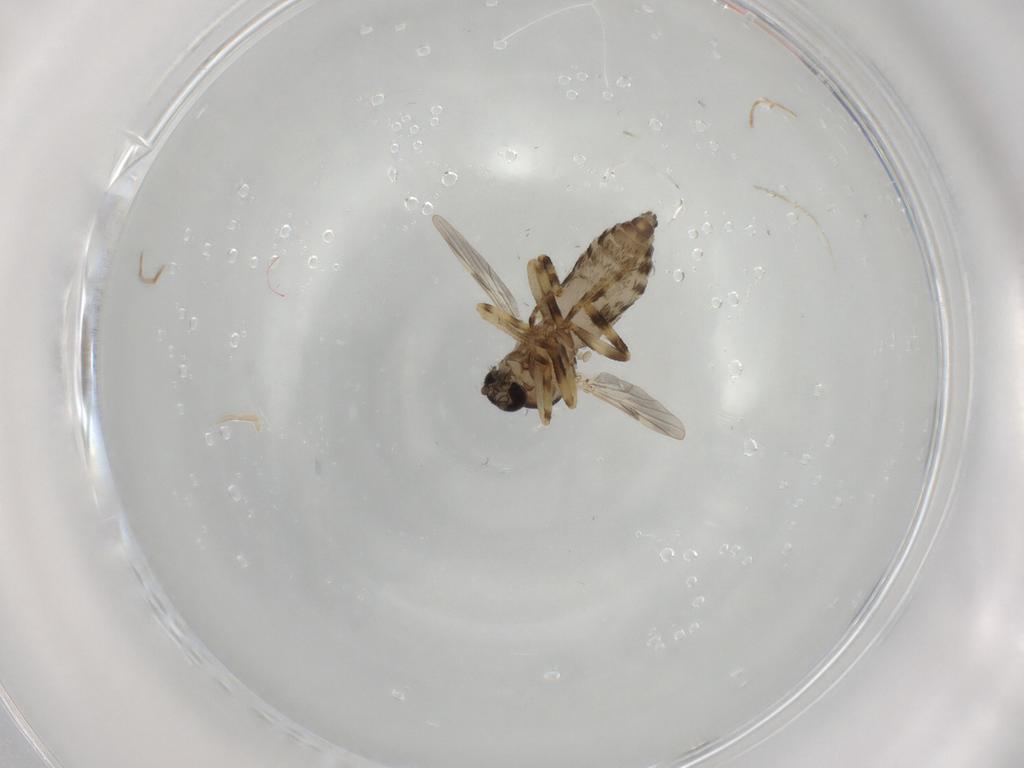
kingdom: Animalia
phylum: Arthropoda
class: Insecta
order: Diptera
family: Ceratopogonidae
